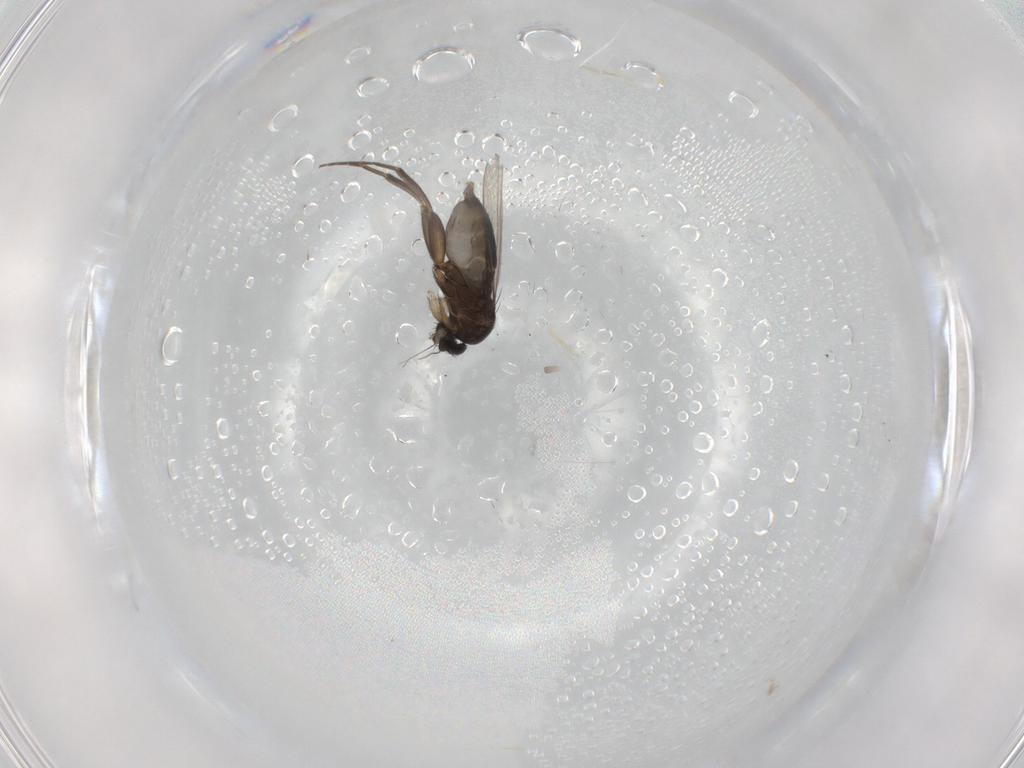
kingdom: Animalia
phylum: Arthropoda
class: Insecta
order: Diptera
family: Phoridae
